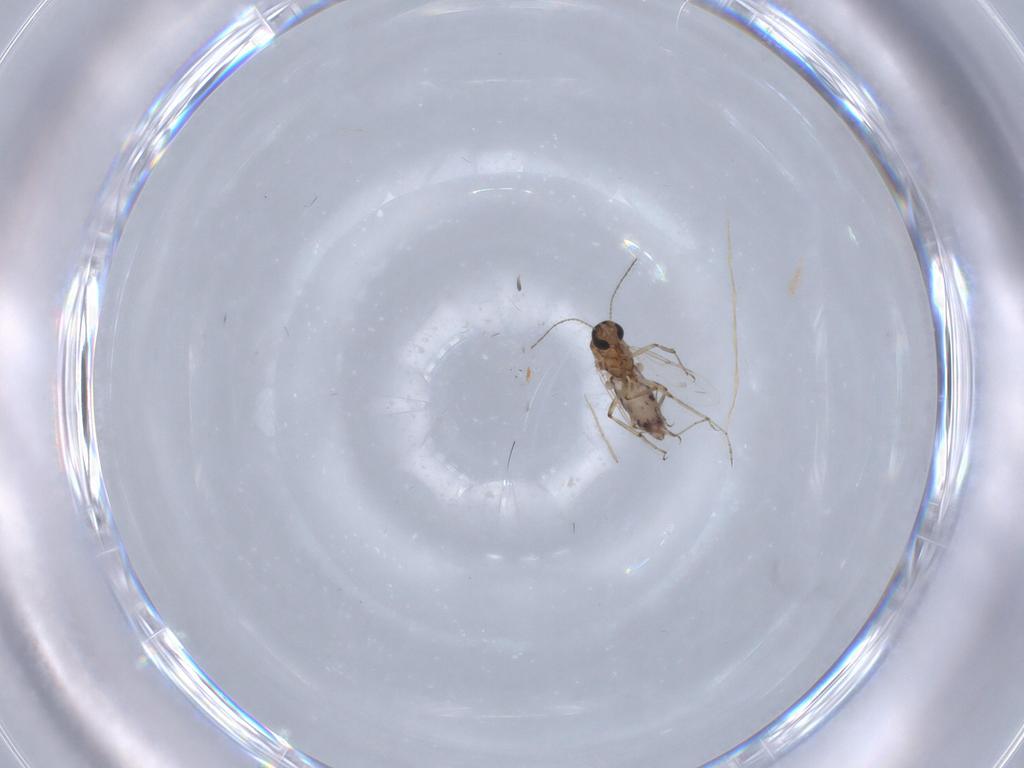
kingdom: Animalia
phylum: Arthropoda
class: Insecta
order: Diptera
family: Ceratopogonidae
